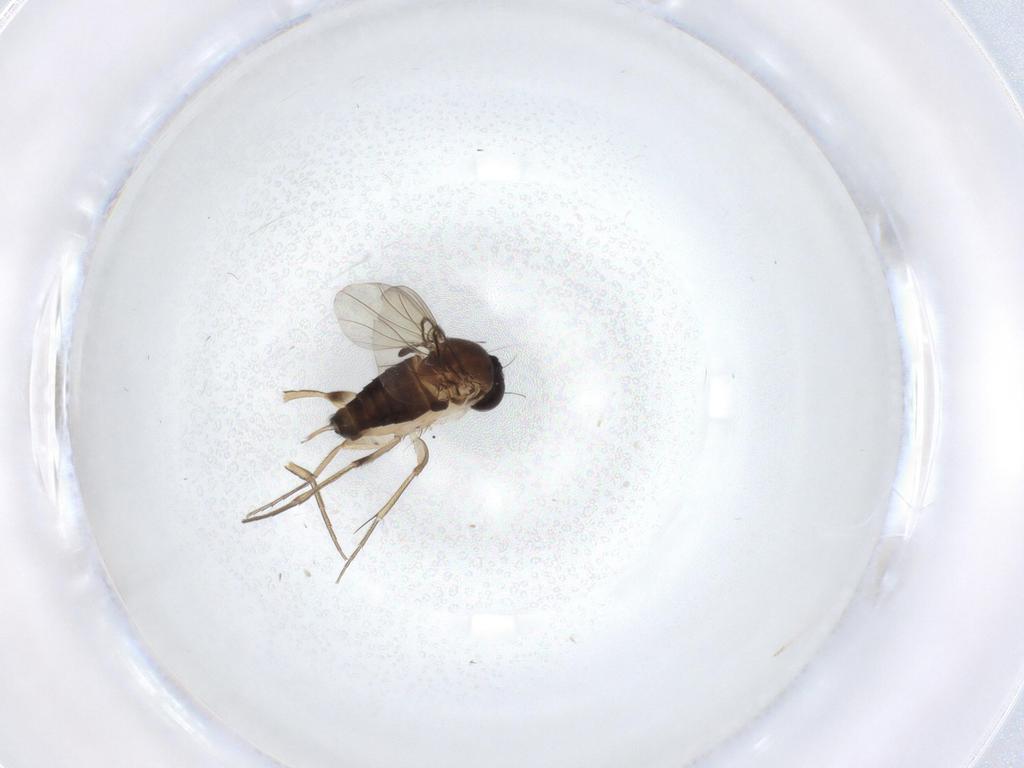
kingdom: Animalia
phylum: Arthropoda
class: Insecta
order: Diptera
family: Phoridae
